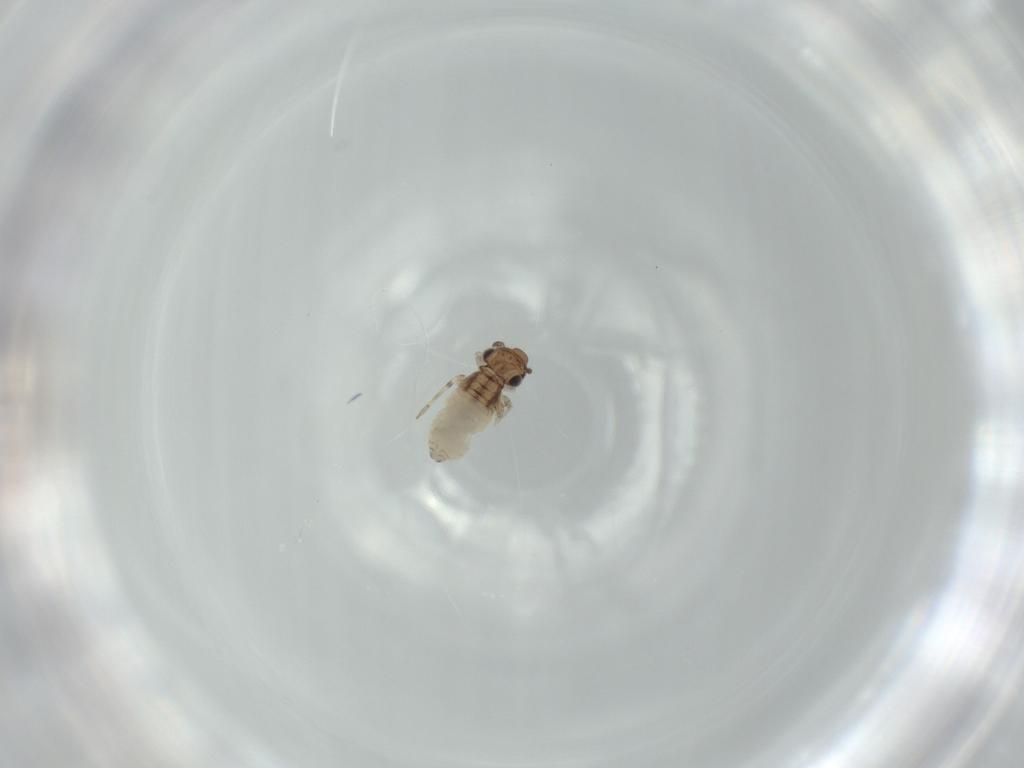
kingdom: Animalia
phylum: Arthropoda
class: Insecta
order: Psocodea
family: Lepidopsocidae
